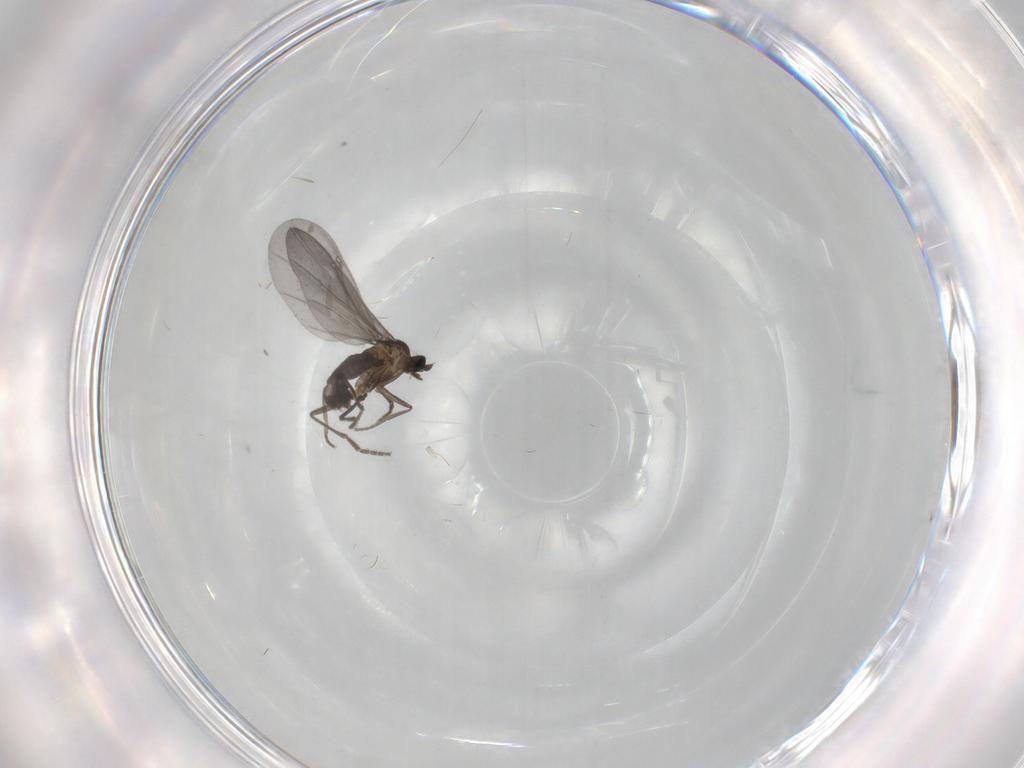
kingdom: Animalia
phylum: Arthropoda
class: Insecta
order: Diptera
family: Phoridae
